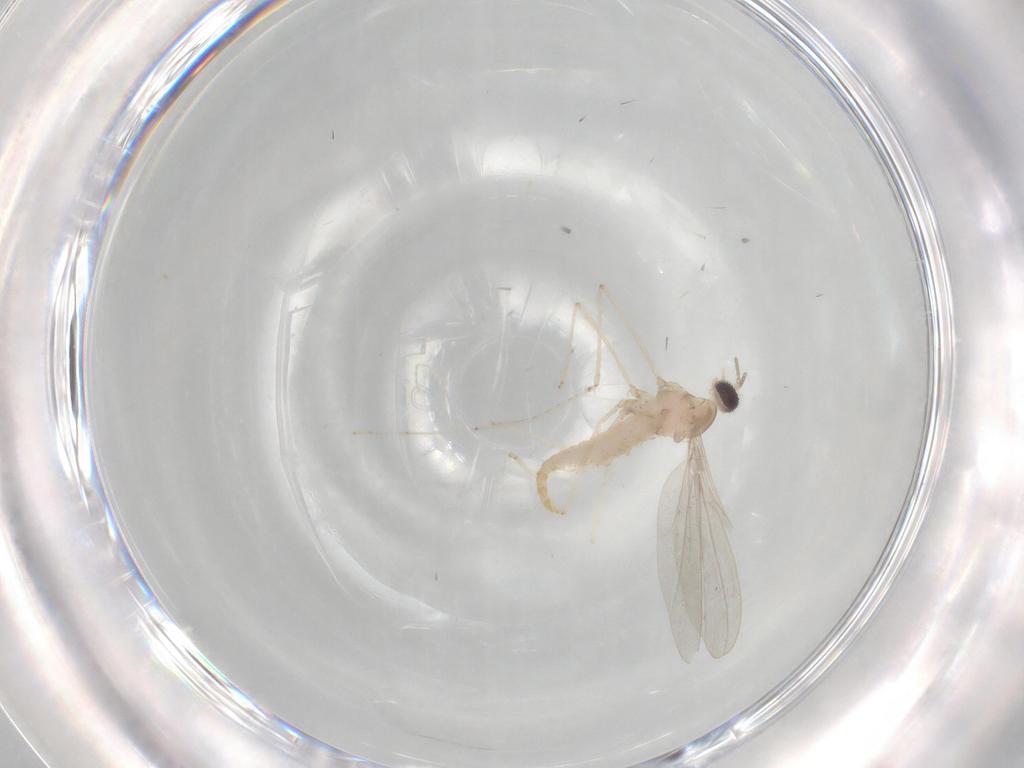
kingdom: Animalia
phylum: Arthropoda
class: Insecta
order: Diptera
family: Cecidomyiidae
